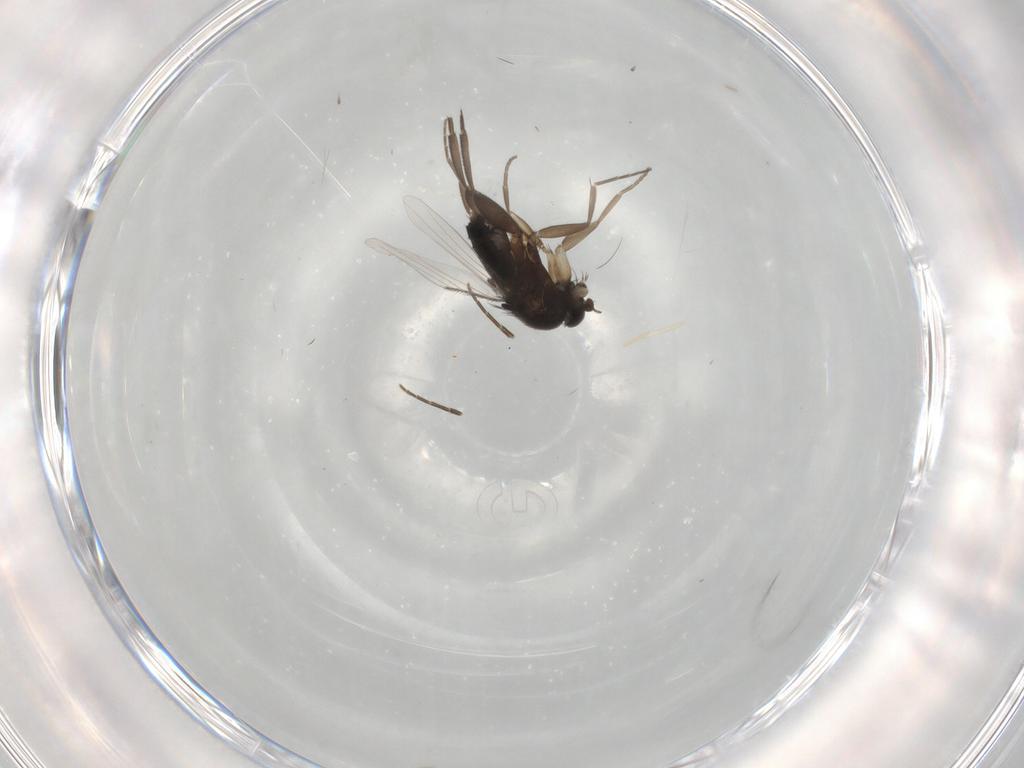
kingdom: Animalia
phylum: Arthropoda
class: Insecta
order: Diptera
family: Phoridae
